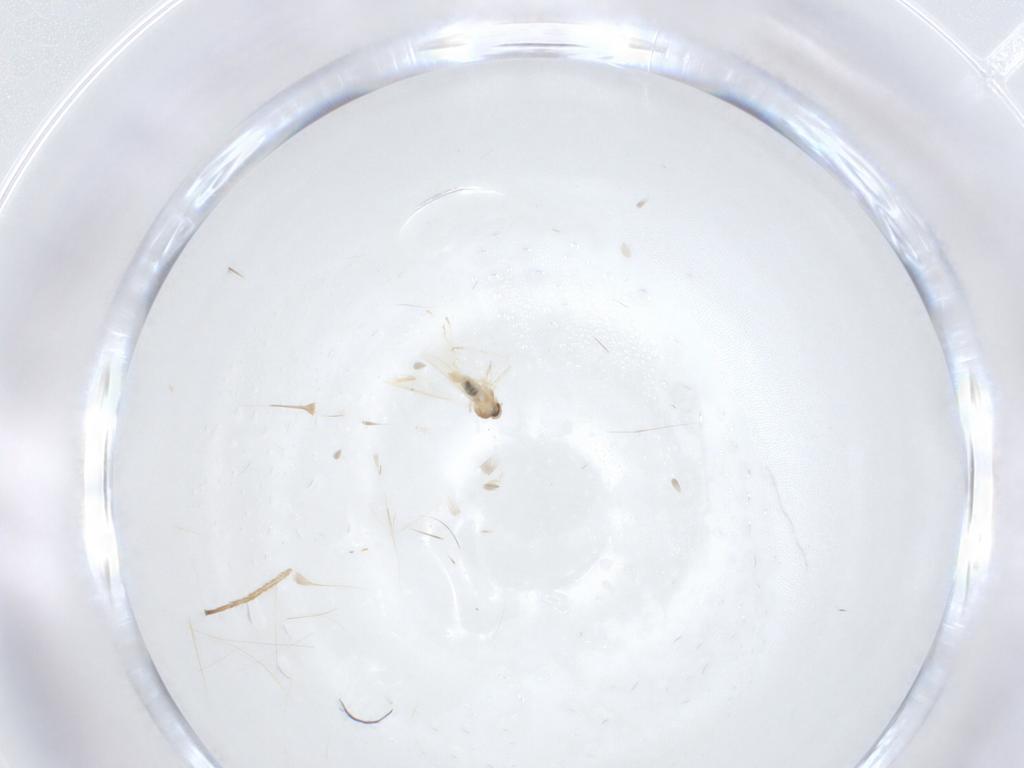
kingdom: Animalia
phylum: Arthropoda
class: Insecta
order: Diptera
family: Cecidomyiidae
